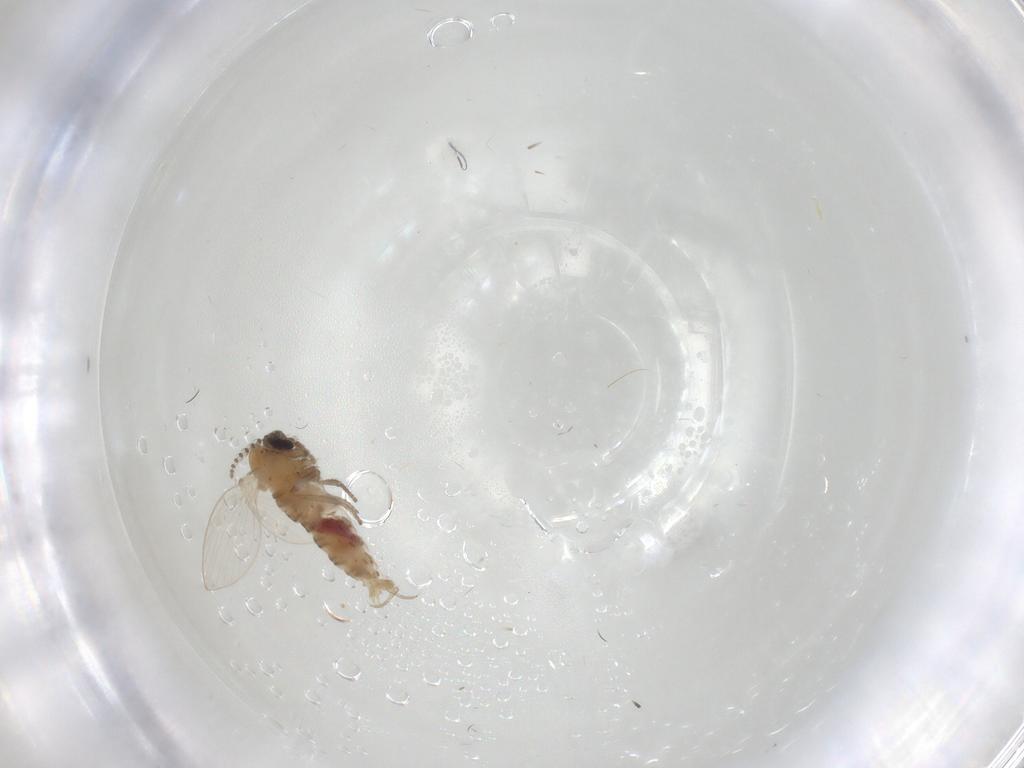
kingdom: Animalia
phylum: Arthropoda
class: Insecta
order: Diptera
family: Psychodidae
